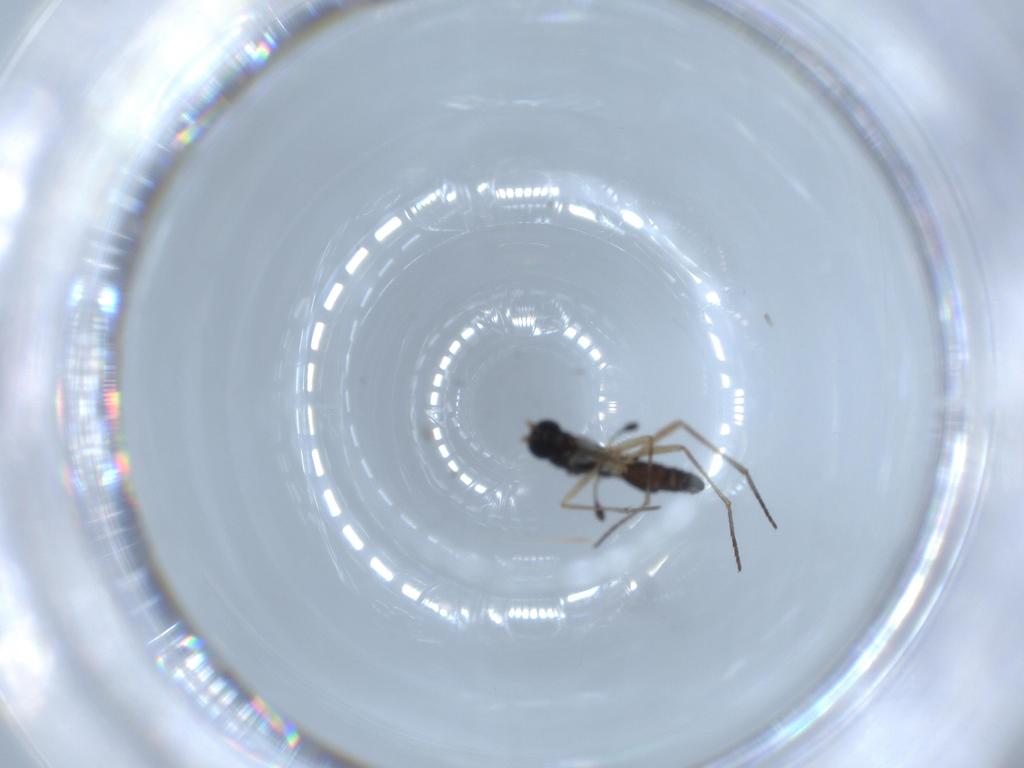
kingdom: Animalia
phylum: Arthropoda
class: Insecta
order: Diptera
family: Sciaridae
